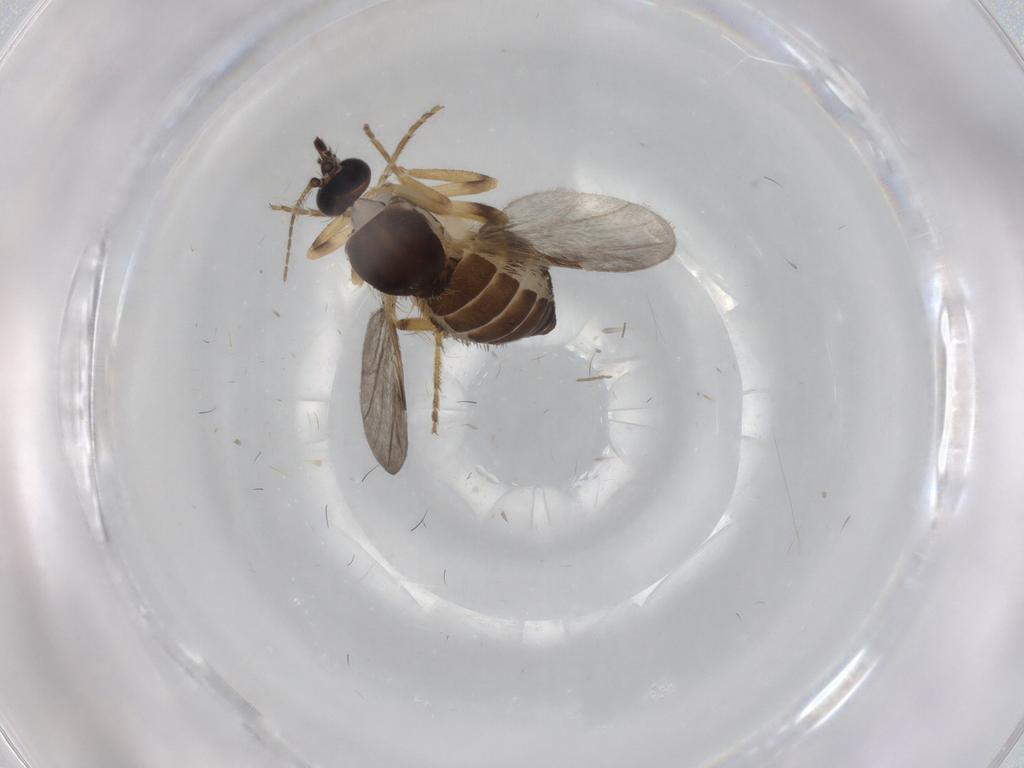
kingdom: Animalia
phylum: Arthropoda
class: Insecta
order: Diptera
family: Ceratopogonidae
